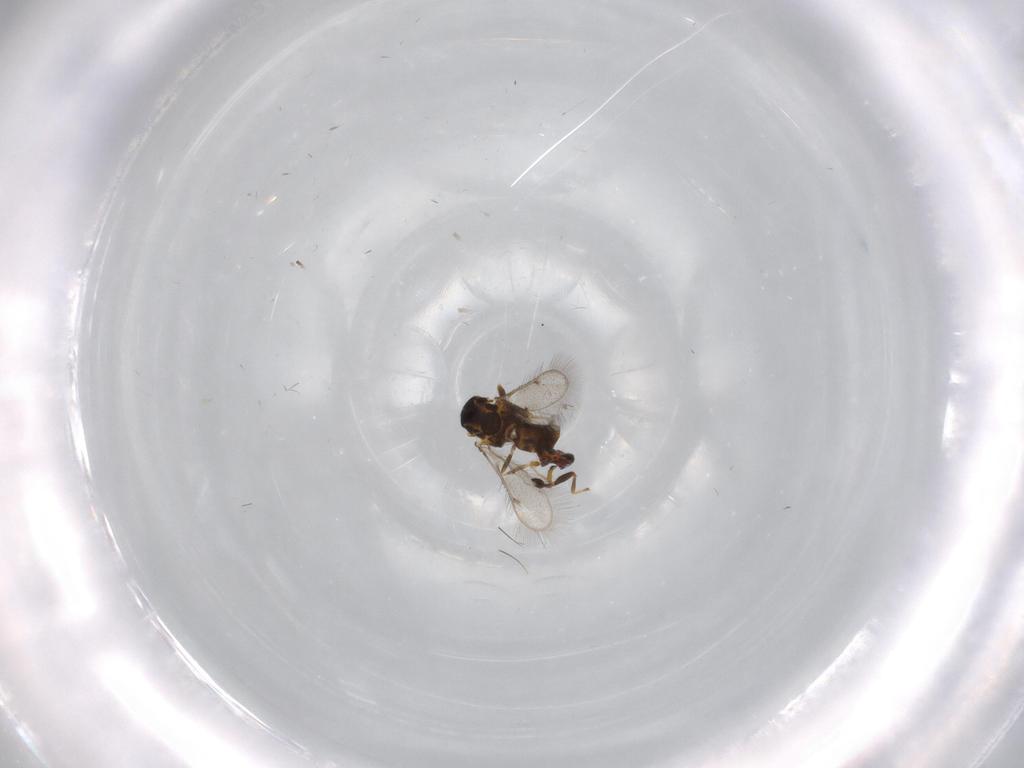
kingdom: Animalia
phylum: Arthropoda
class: Insecta
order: Hymenoptera
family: Eulophidae
